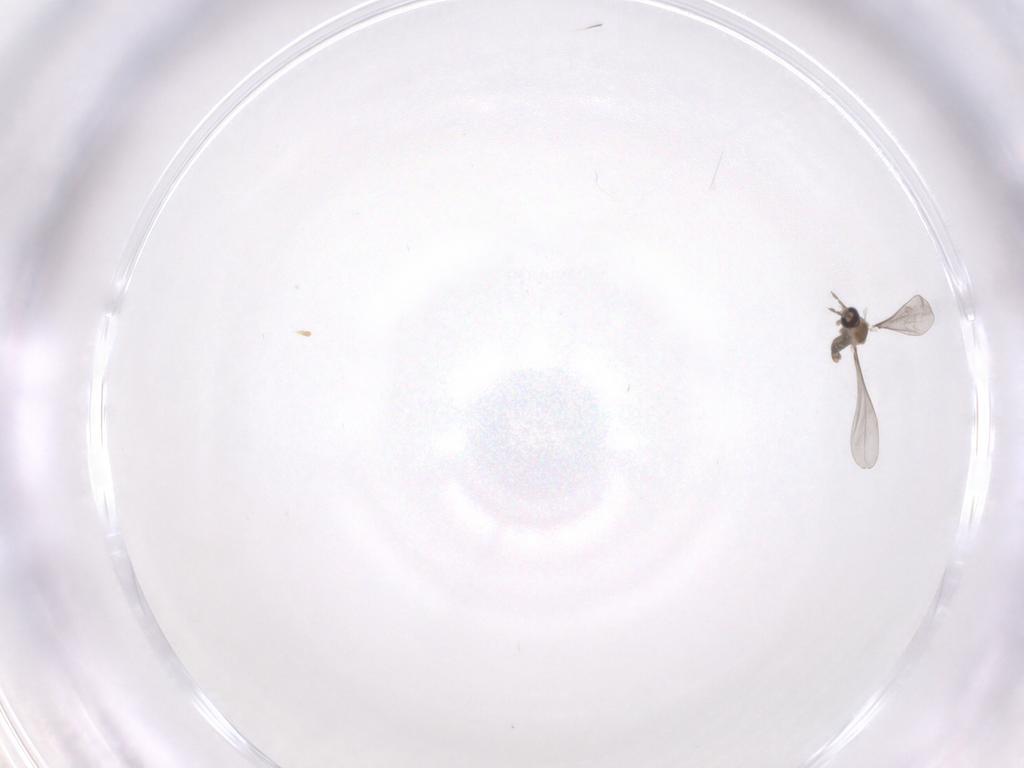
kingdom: Animalia
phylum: Arthropoda
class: Insecta
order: Diptera
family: Cecidomyiidae
